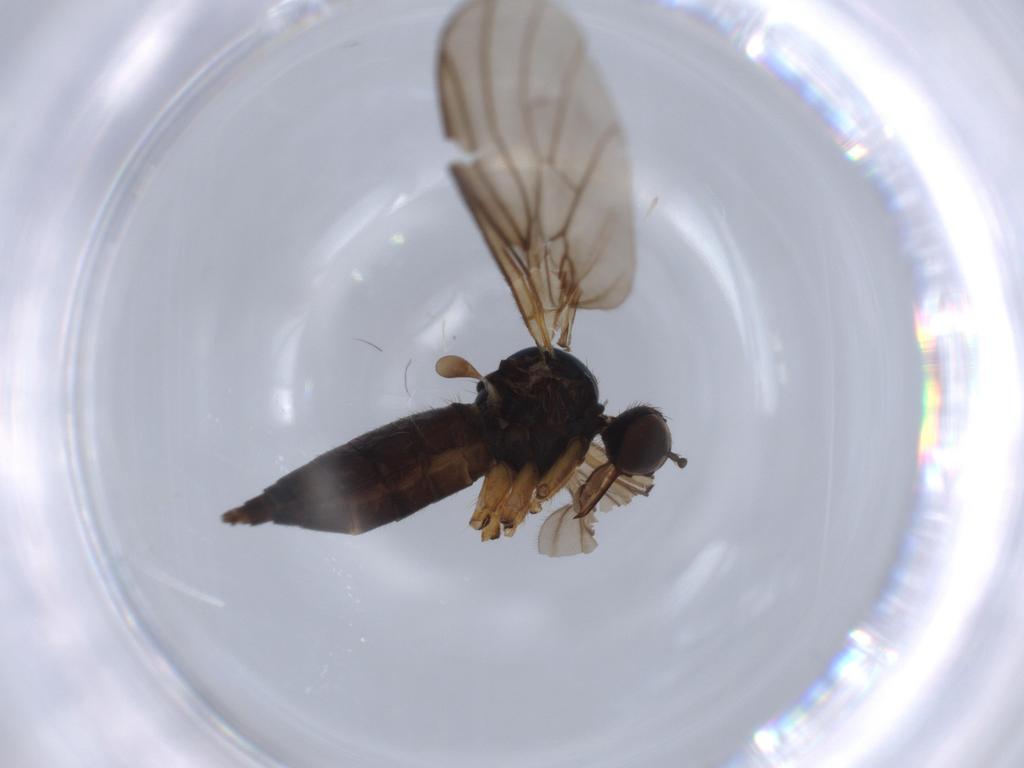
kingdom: Animalia
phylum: Arthropoda
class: Insecta
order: Diptera
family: Empididae
